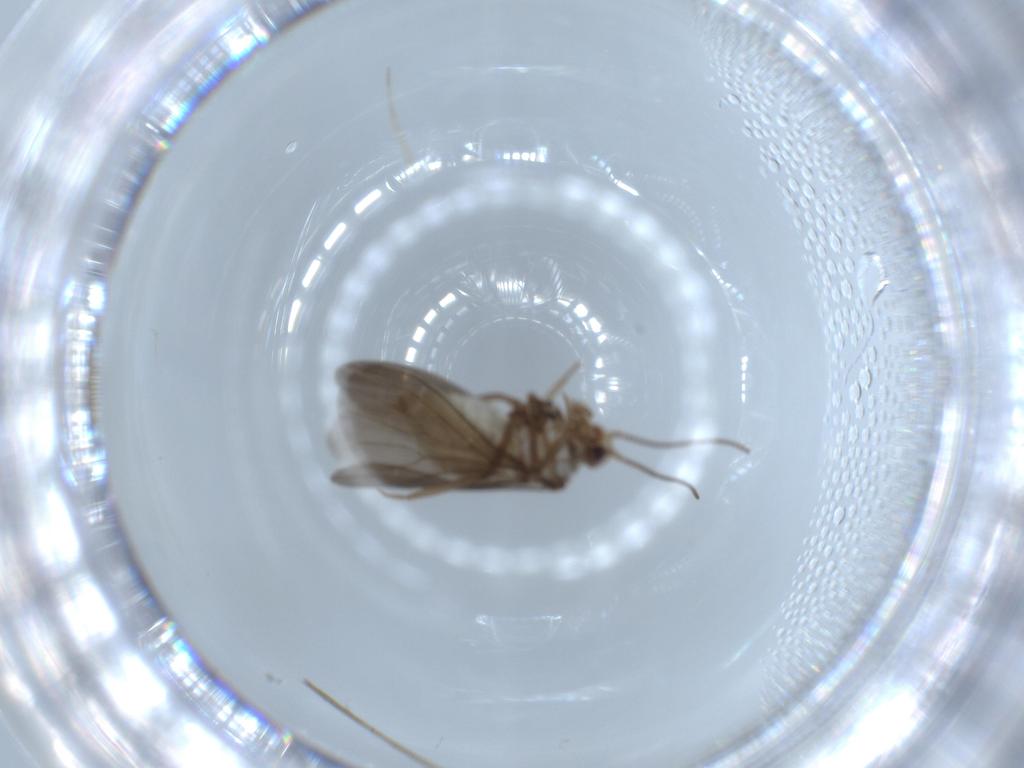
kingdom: Animalia
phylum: Arthropoda
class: Insecta
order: Neuroptera
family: Coniopterygidae
